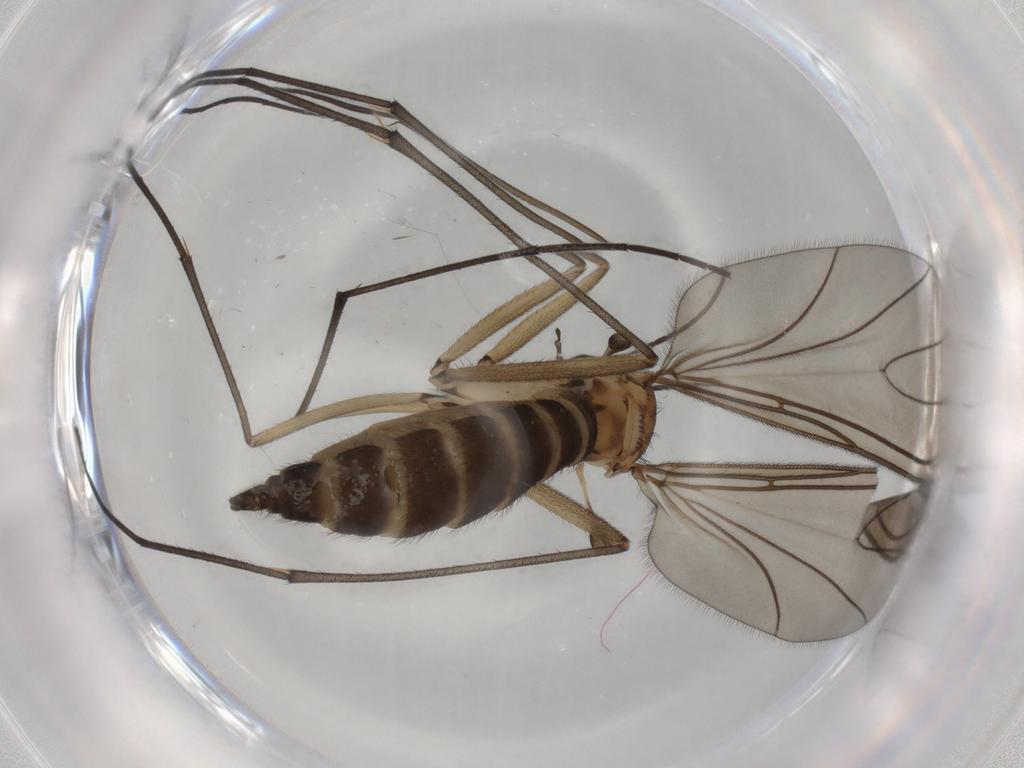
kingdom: Animalia
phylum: Arthropoda
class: Insecta
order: Diptera
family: Sciaridae
